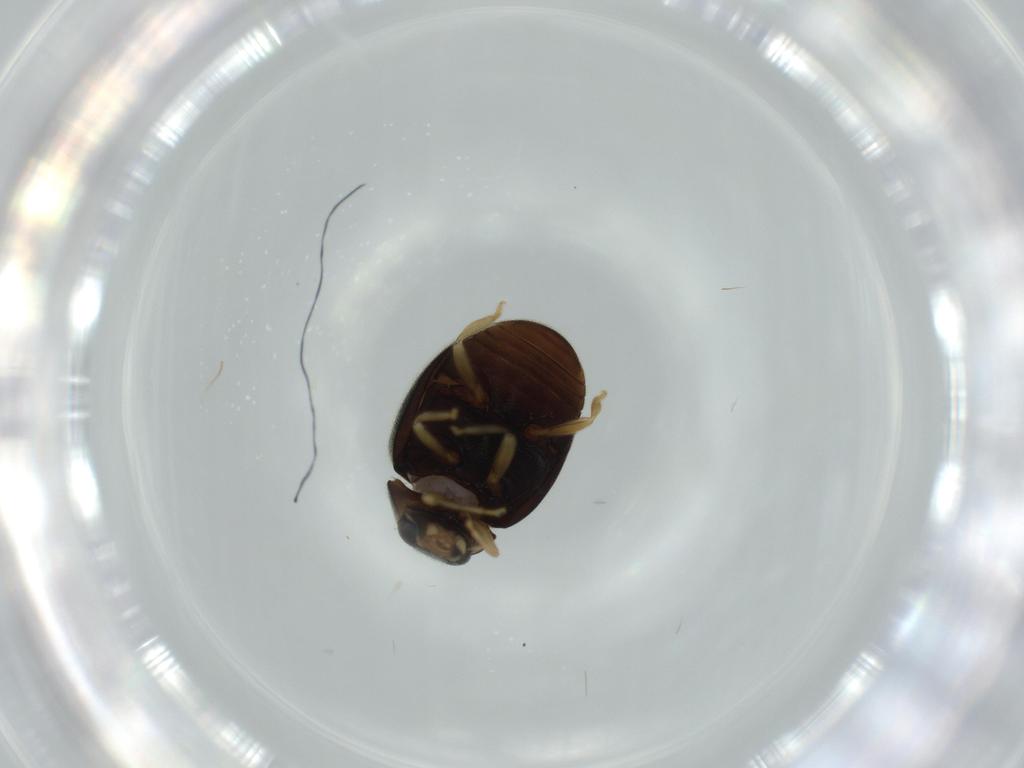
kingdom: Animalia
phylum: Arthropoda
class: Insecta
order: Coleoptera
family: Coccinellidae
